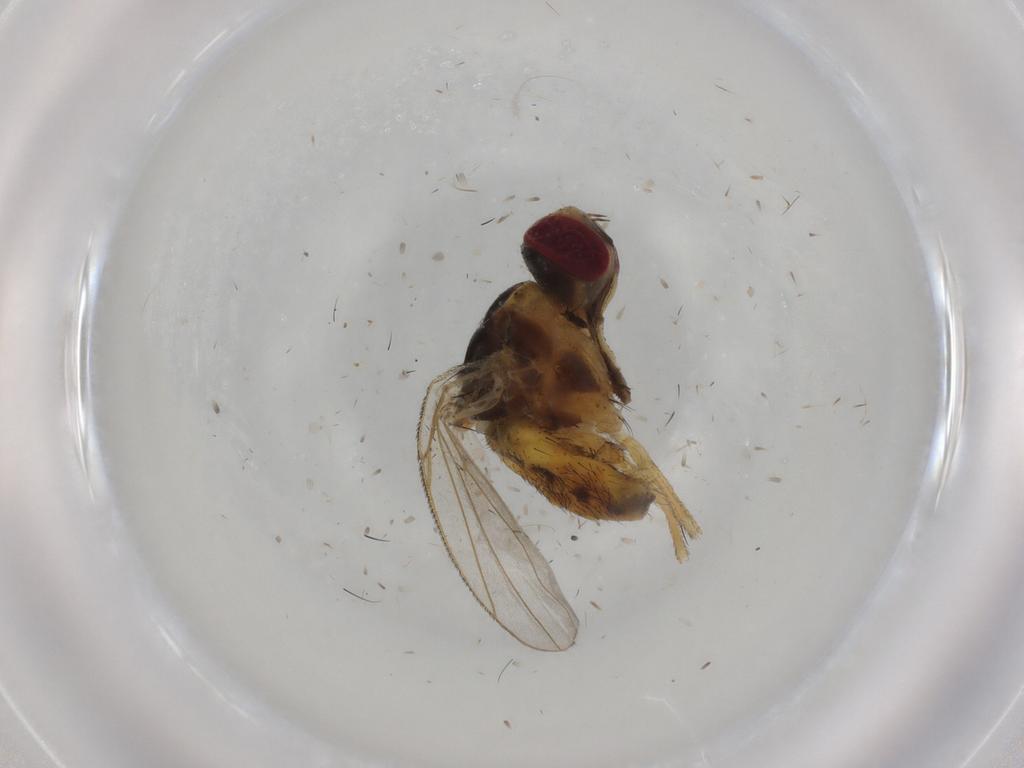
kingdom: Animalia
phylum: Arthropoda
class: Insecta
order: Diptera
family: Muscidae
